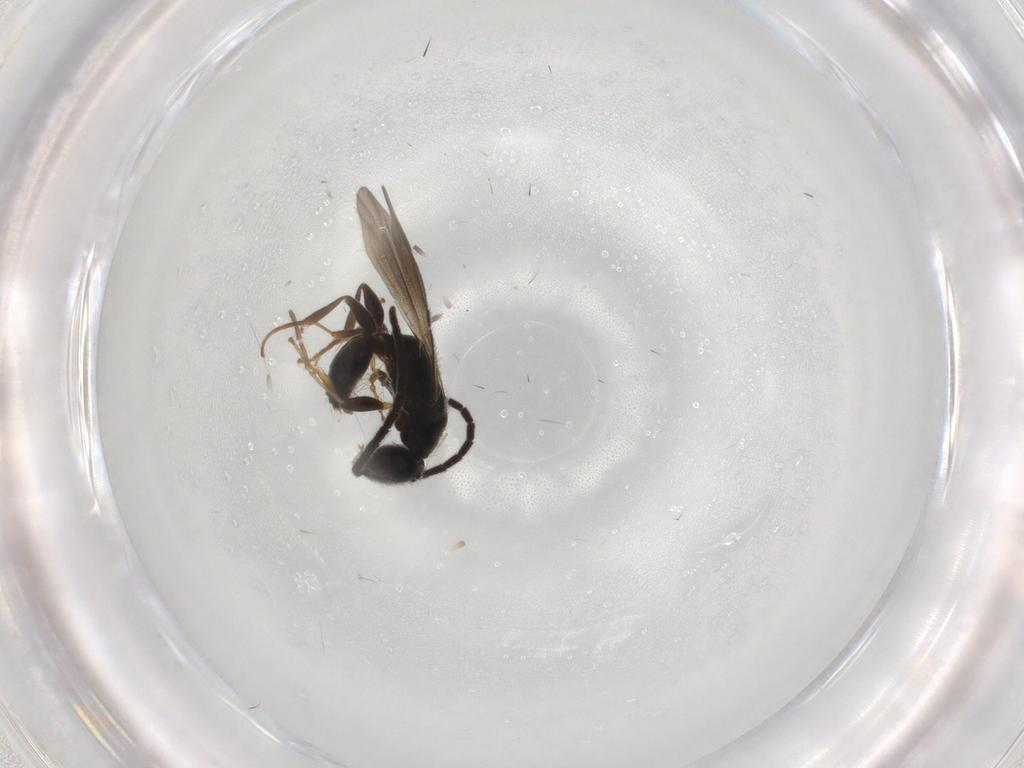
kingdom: Animalia
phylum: Arthropoda
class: Insecta
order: Hymenoptera
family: Bethylidae
